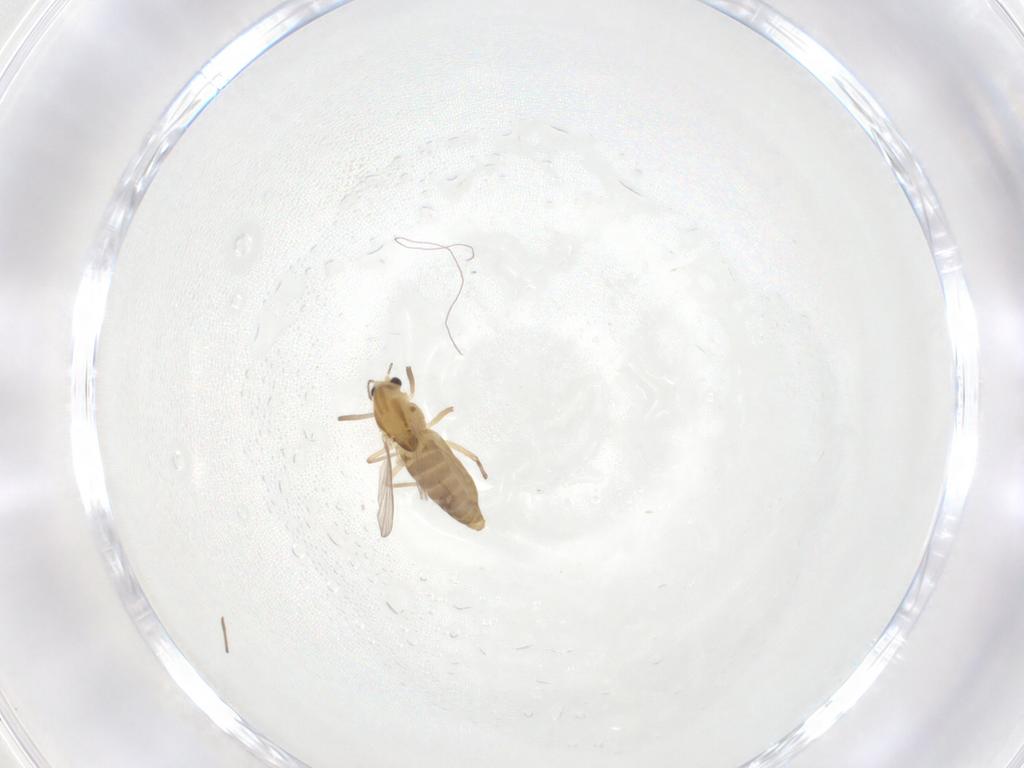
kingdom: Animalia
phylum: Arthropoda
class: Insecta
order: Diptera
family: Chironomidae
